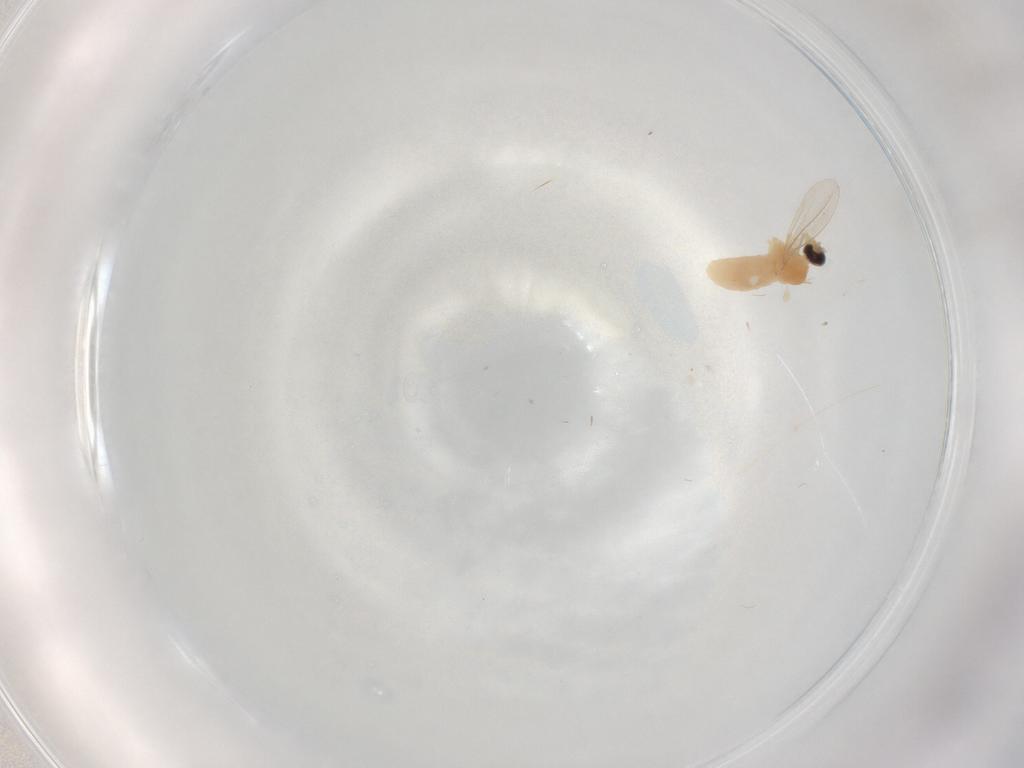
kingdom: Animalia
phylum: Arthropoda
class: Insecta
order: Diptera
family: Cecidomyiidae
